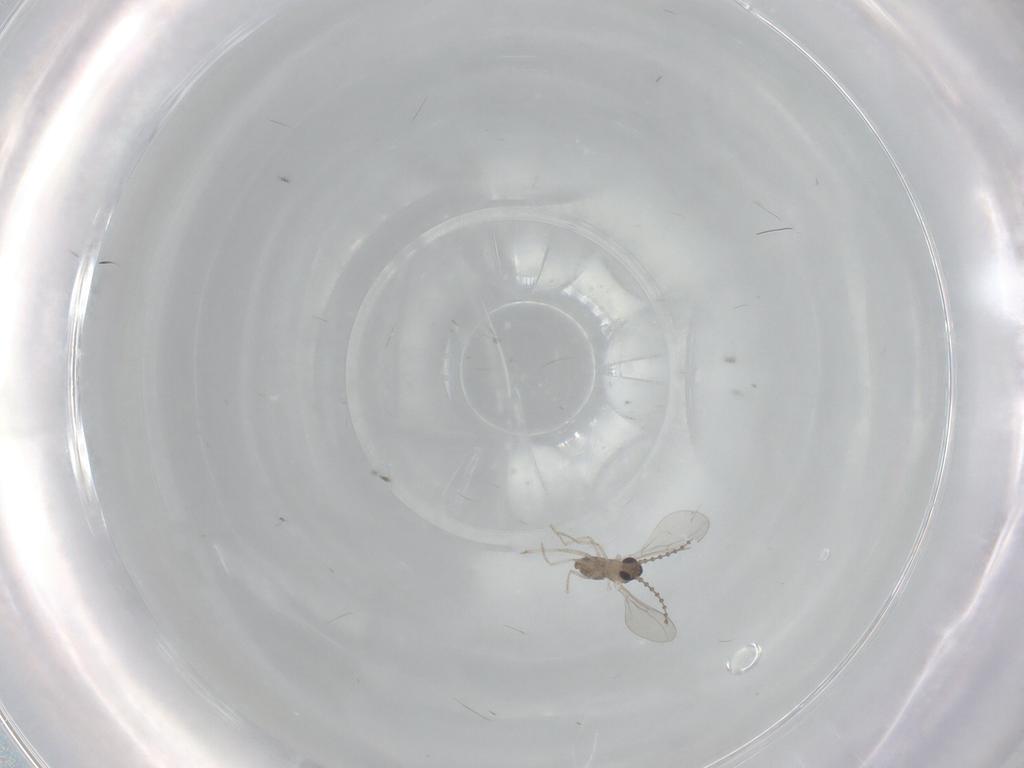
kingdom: Animalia
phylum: Arthropoda
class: Insecta
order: Diptera
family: Cecidomyiidae
